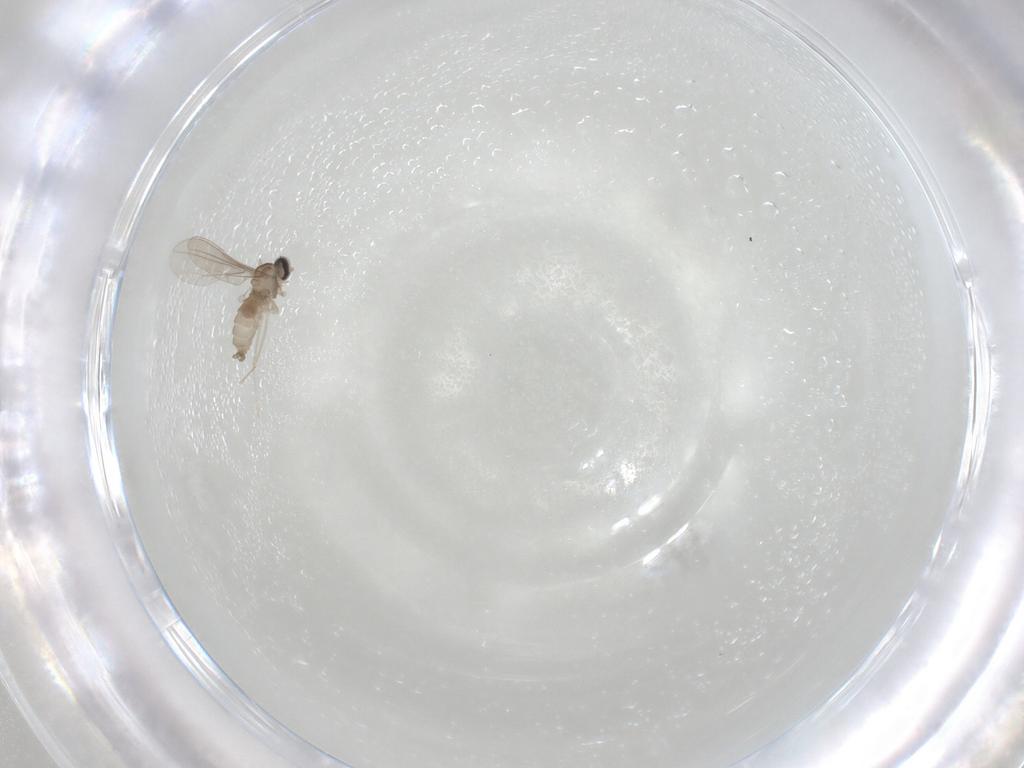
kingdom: Animalia
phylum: Arthropoda
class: Insecta
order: Diptera
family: Cecidomyiidae
